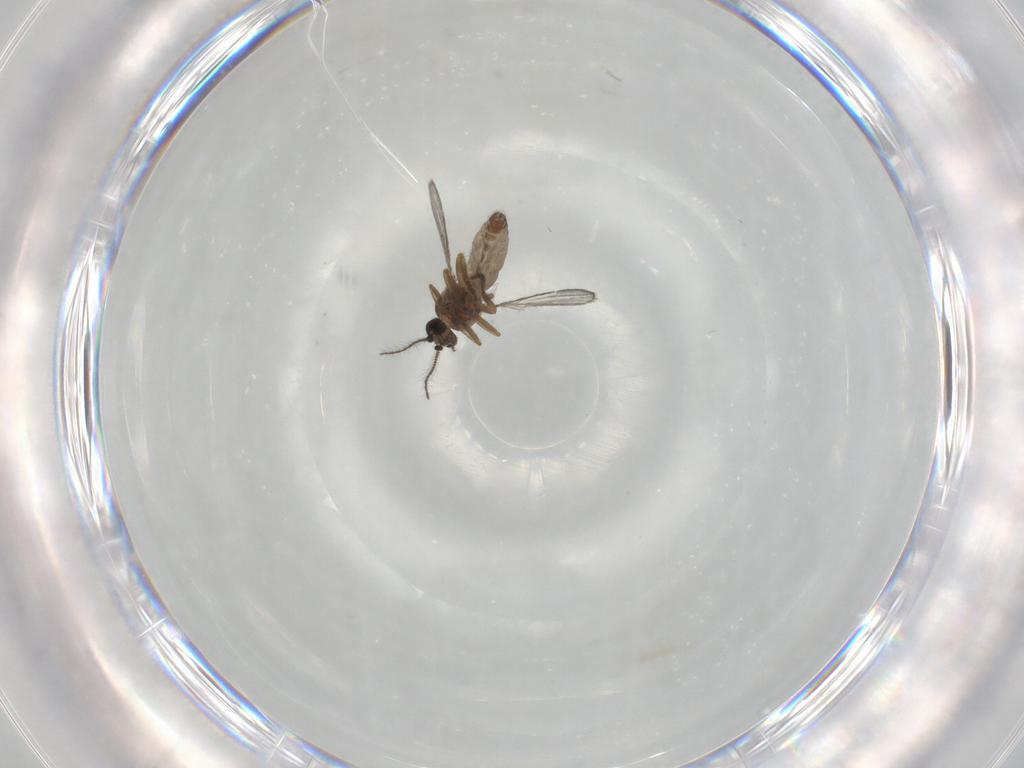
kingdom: Animalia
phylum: Arthropoda
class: Insecta
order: Diptera
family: Ceratopogonidae
